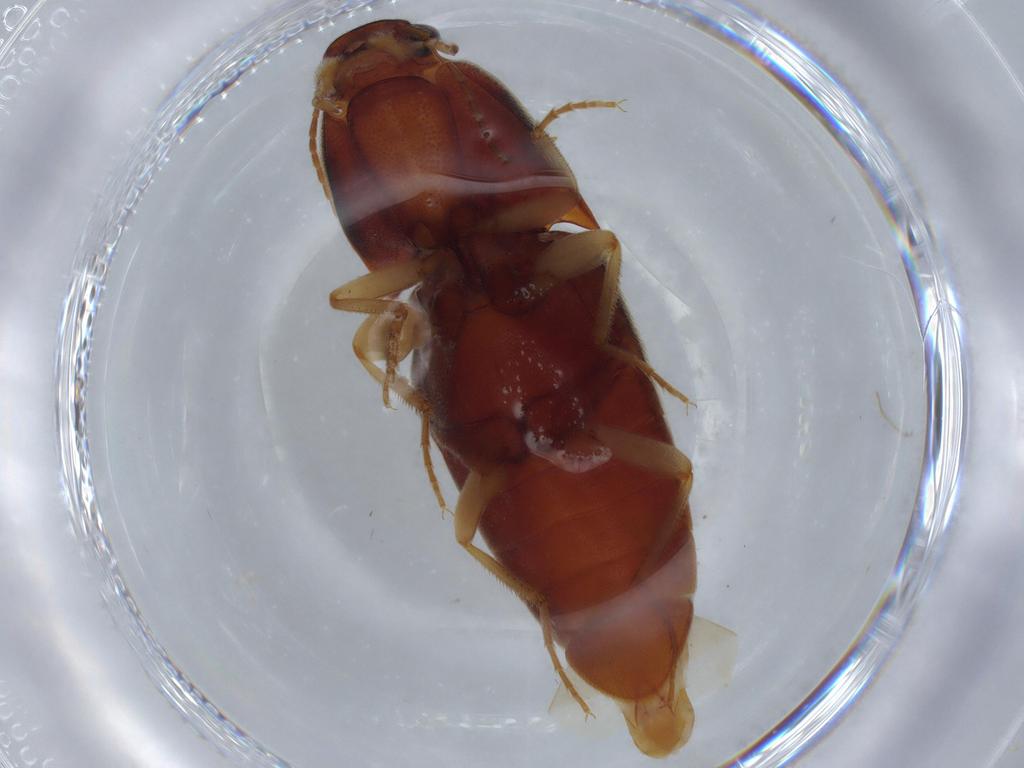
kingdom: Animalia
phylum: Arthropoda
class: Insecta
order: Coleoptera
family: Elateridae
